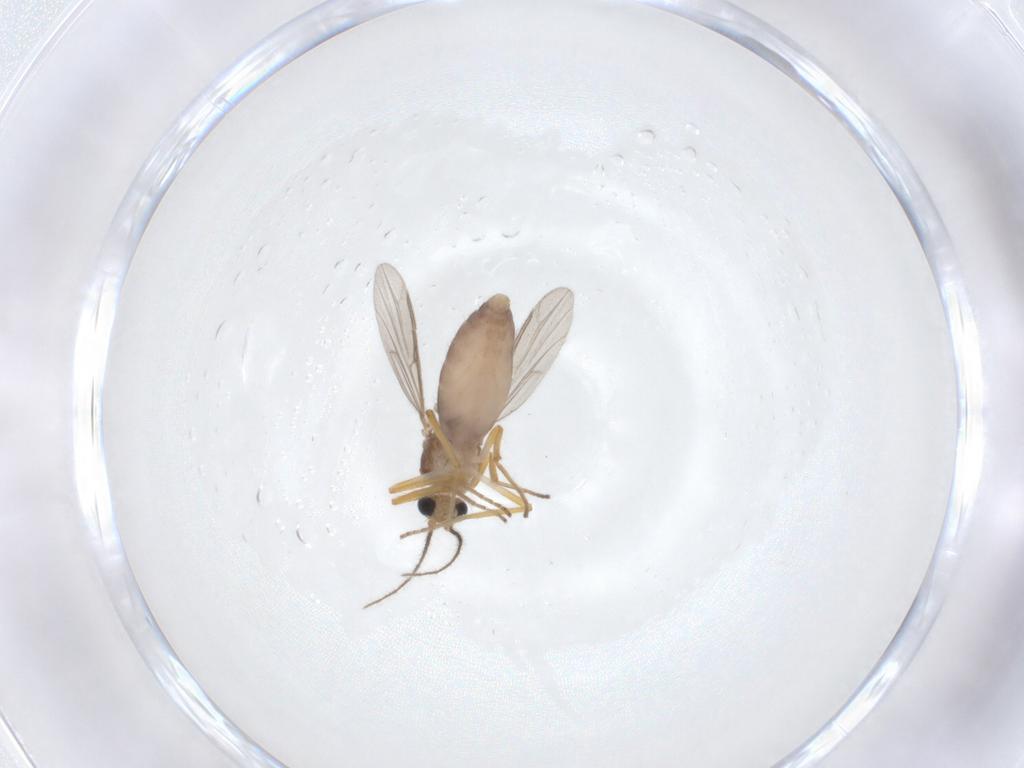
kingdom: Animalia
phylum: Arthropoda
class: Insecta
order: Diptera
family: Ceratopogonidae
